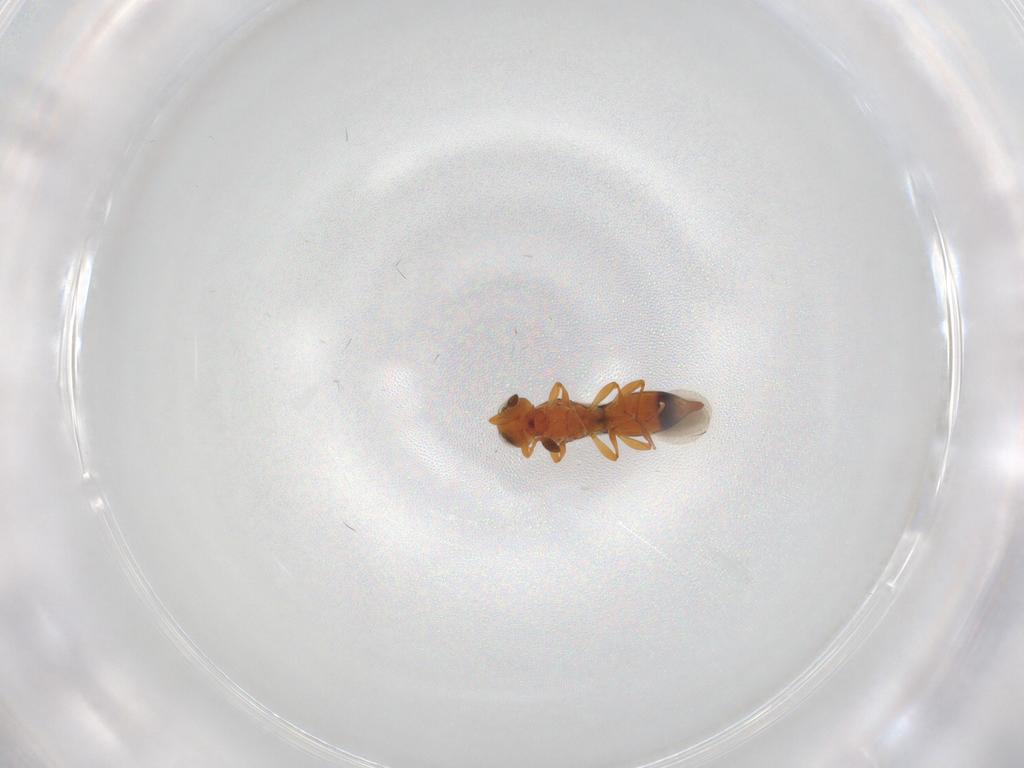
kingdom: Animalia
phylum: Arthropoda
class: Insecta
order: Hymenoptera
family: Platygastridae
